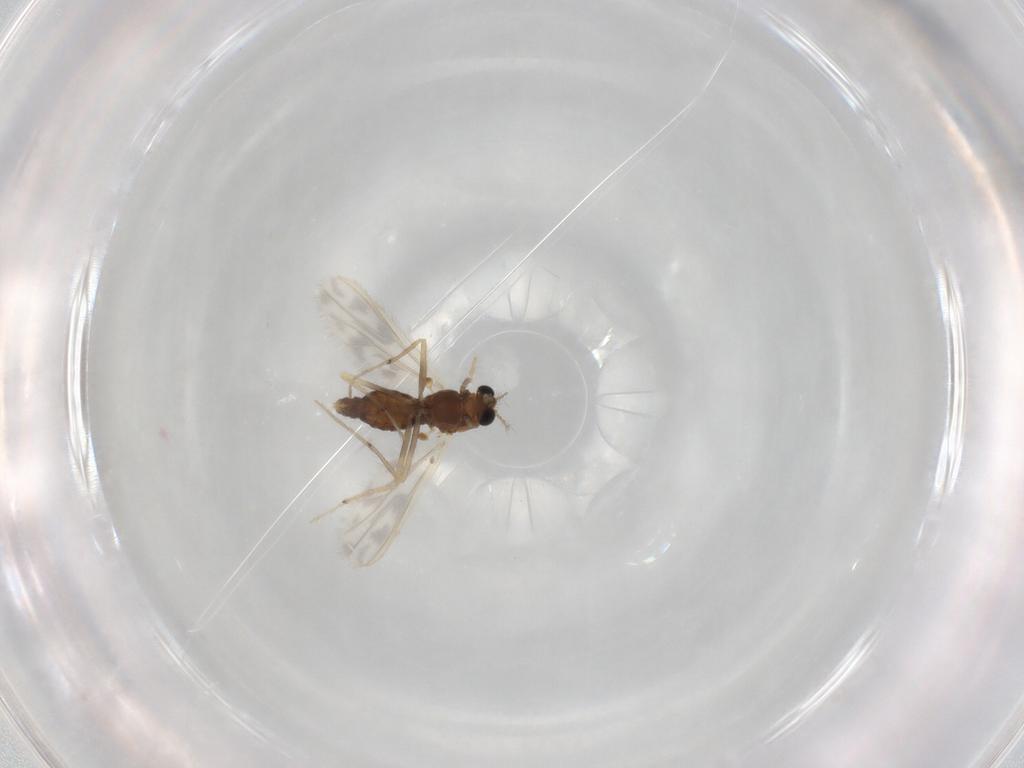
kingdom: Animalia
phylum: Arthropoda
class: Insecta
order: Diptera
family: Chironomidae
